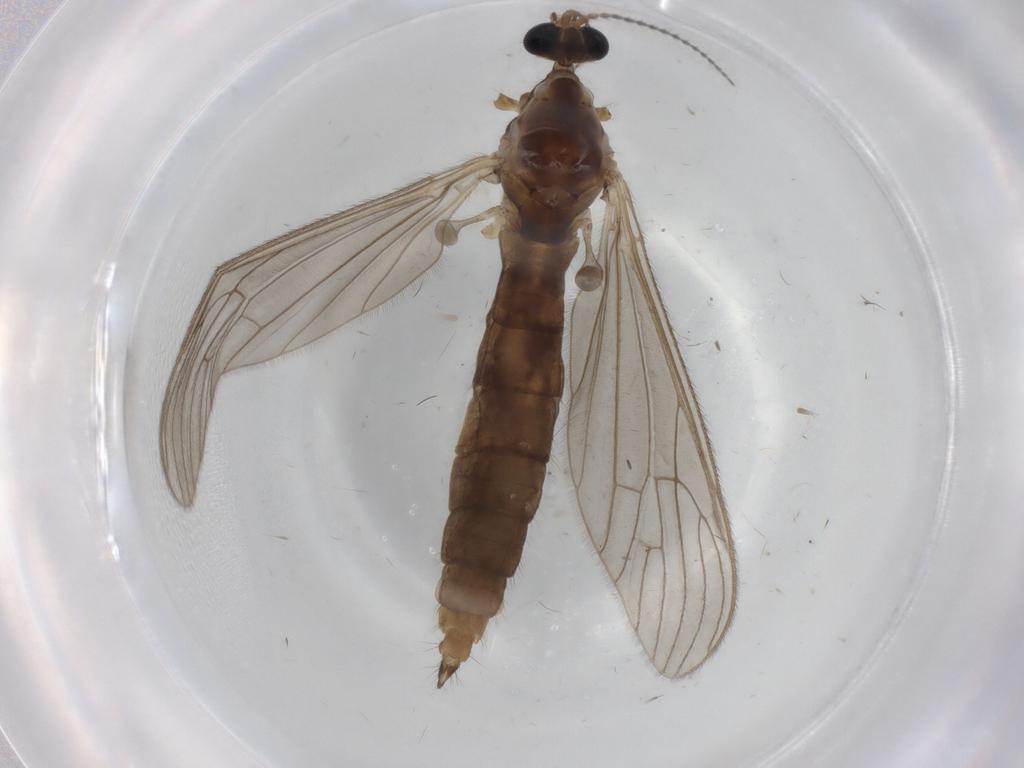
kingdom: Animalia
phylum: Arthropoda
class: Insecta
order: Diptera
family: Limoniidae
